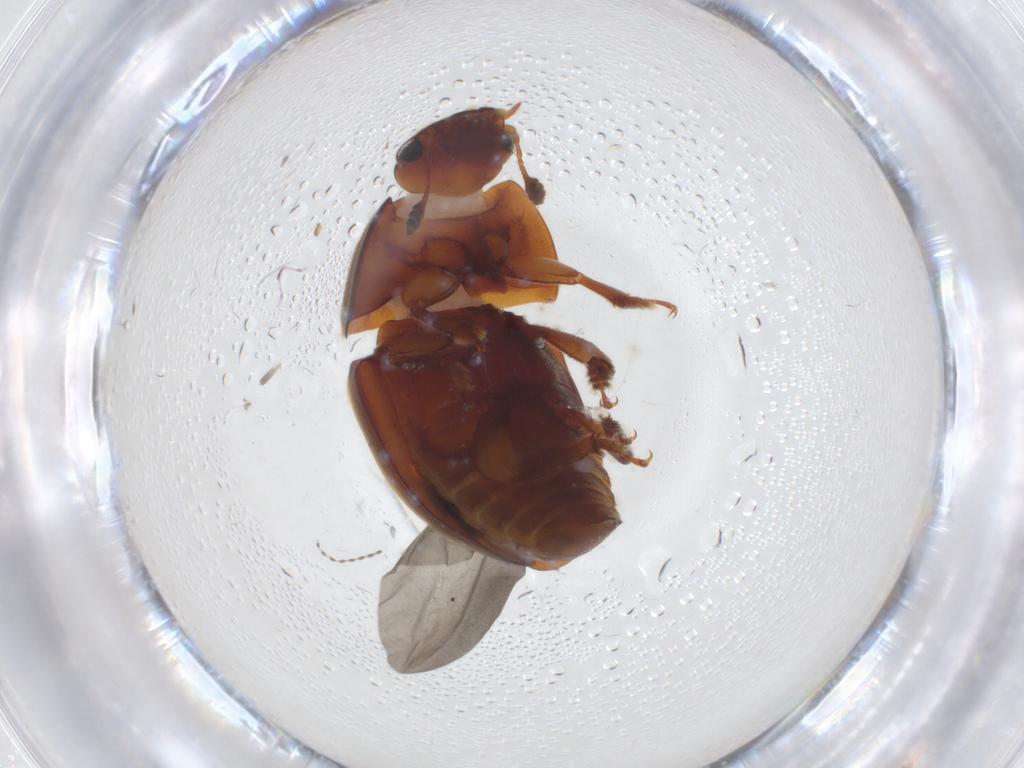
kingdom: Animalia
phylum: Arthropoda
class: Insecta
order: Coleoptera
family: Nitidulidae
